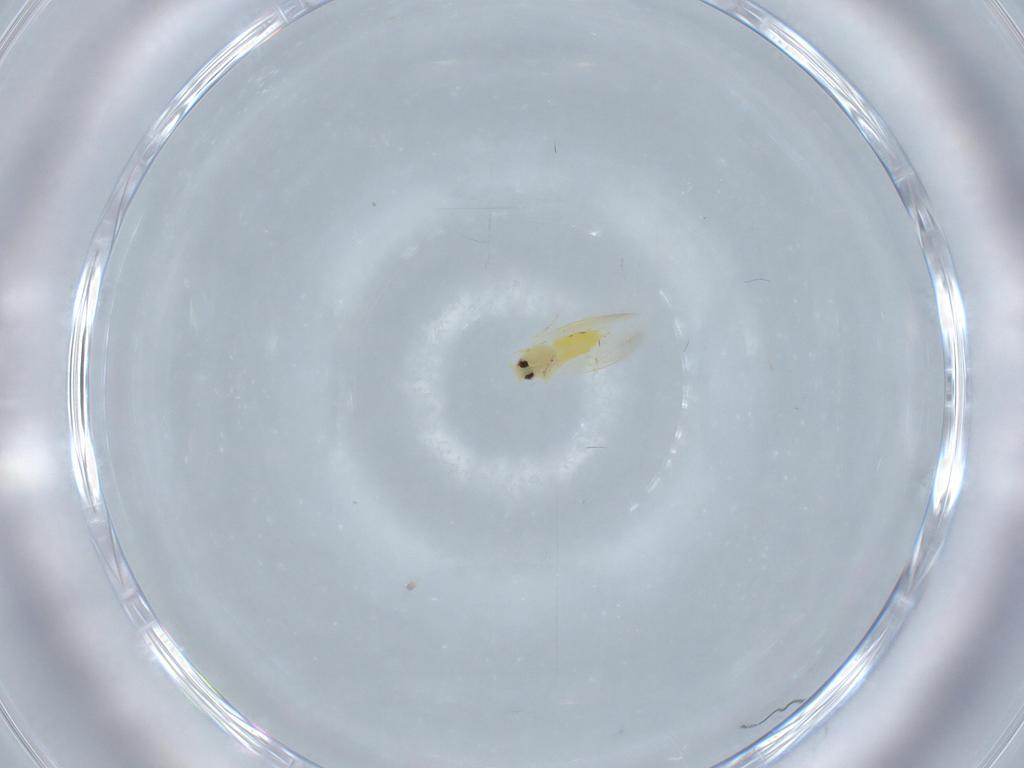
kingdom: Animalia
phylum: Arthropoda
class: Insecta
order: Hemiptera
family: Aleyrodidae
